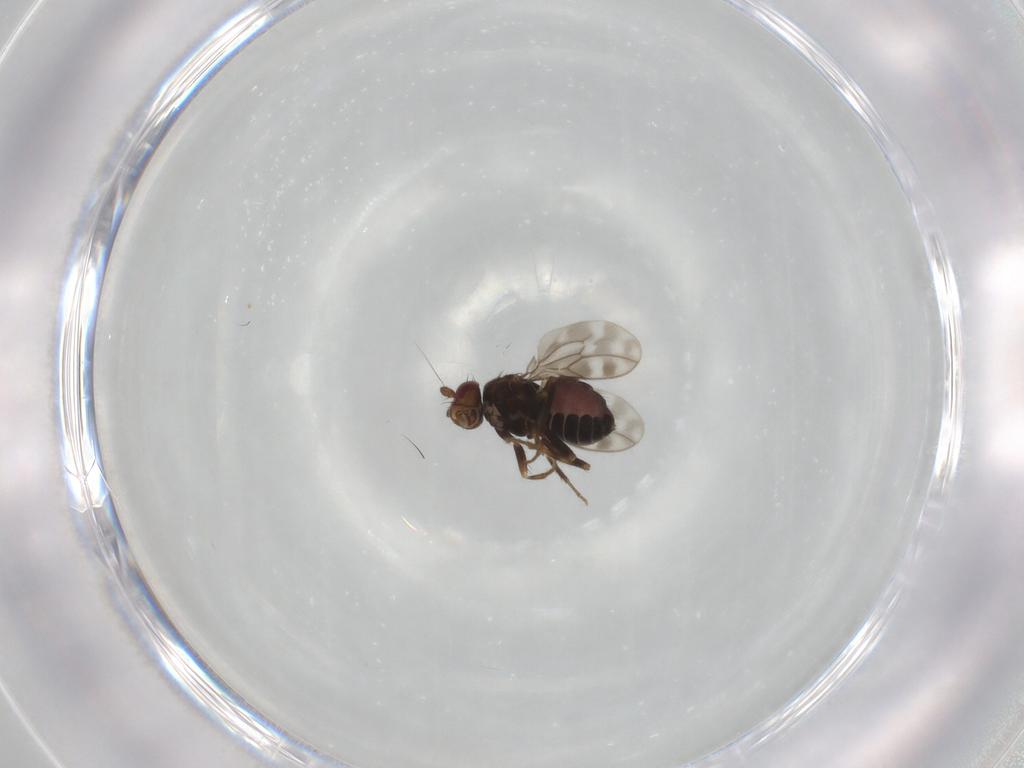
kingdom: Animalia
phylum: Arthropoda
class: Insecta
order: Diptera
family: Sphaeroceridae
